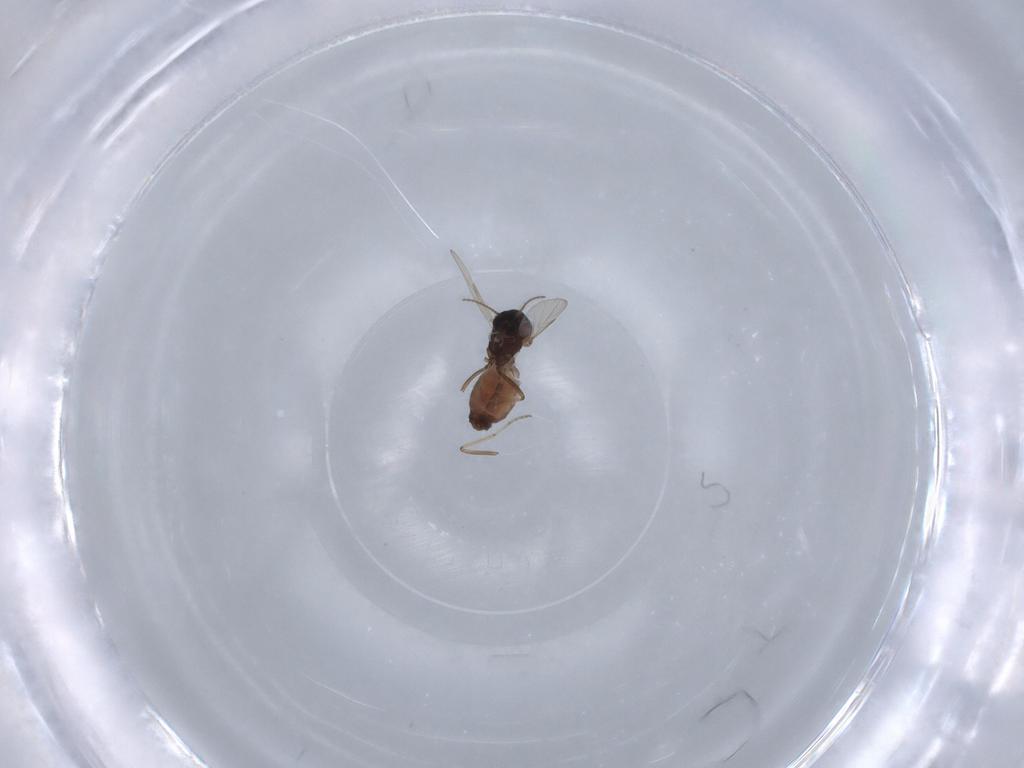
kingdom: Animalia
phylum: Arthropoda
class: Insecta
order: Diptera
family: Ceratopogonidae
